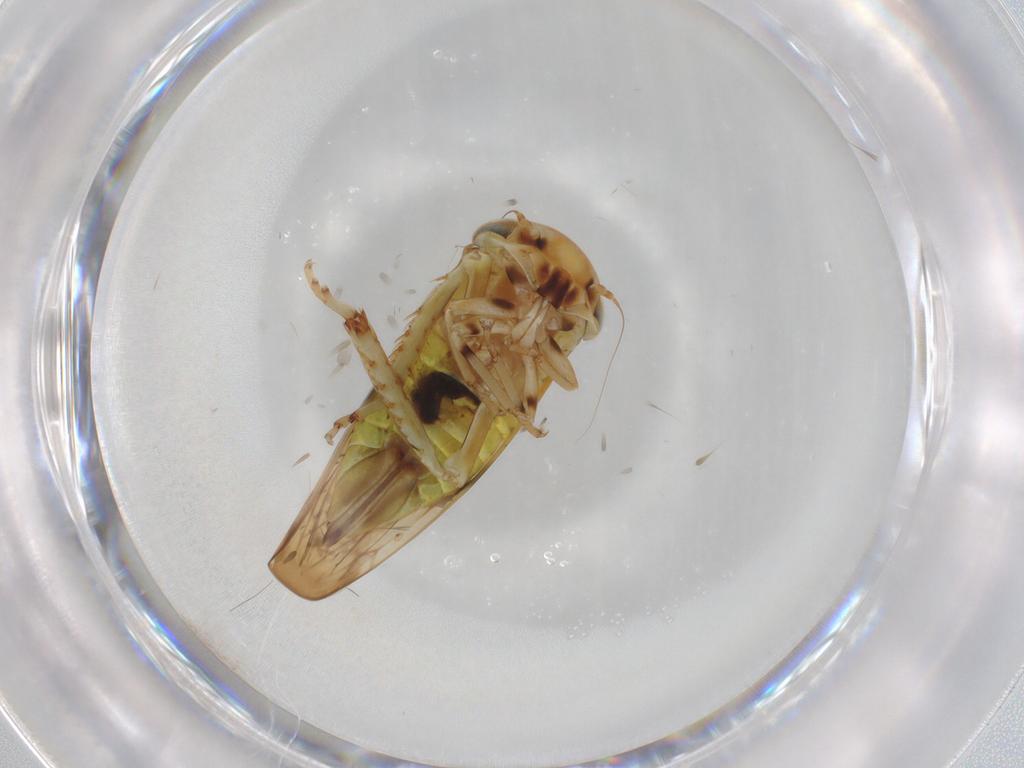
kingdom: Animalia
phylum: Arthropoda
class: Insecta
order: Hemiptera
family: Cicadellidae
